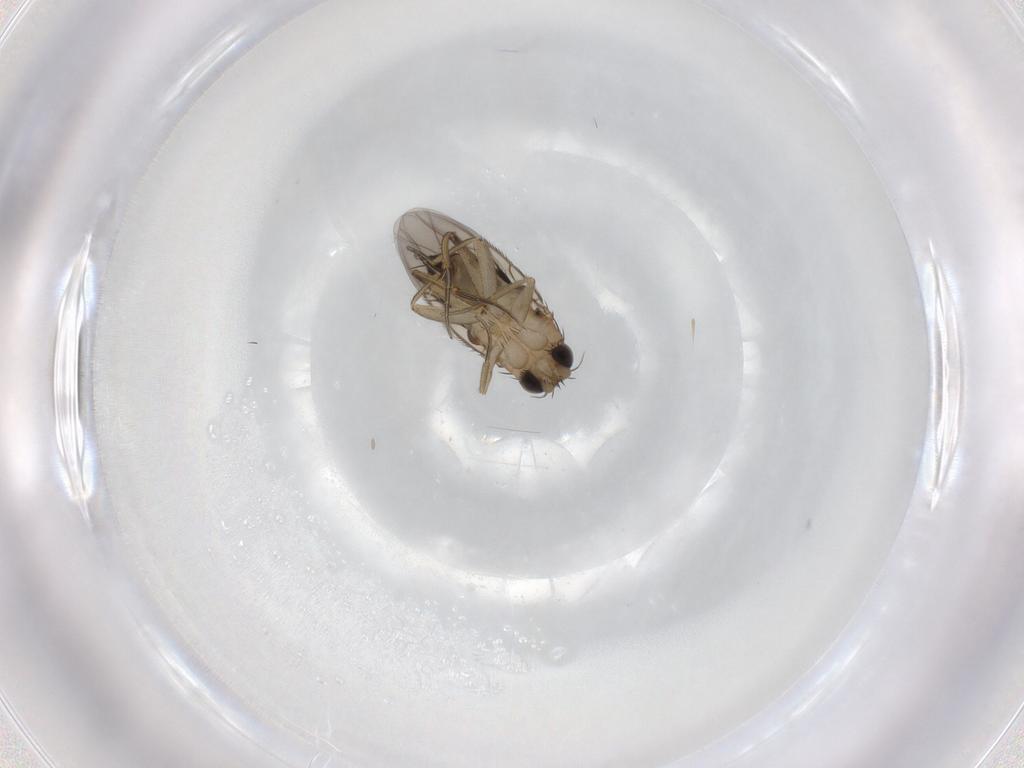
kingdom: Animalia
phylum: Arthropoda
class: Insecta
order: Diptera
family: Phoridae
